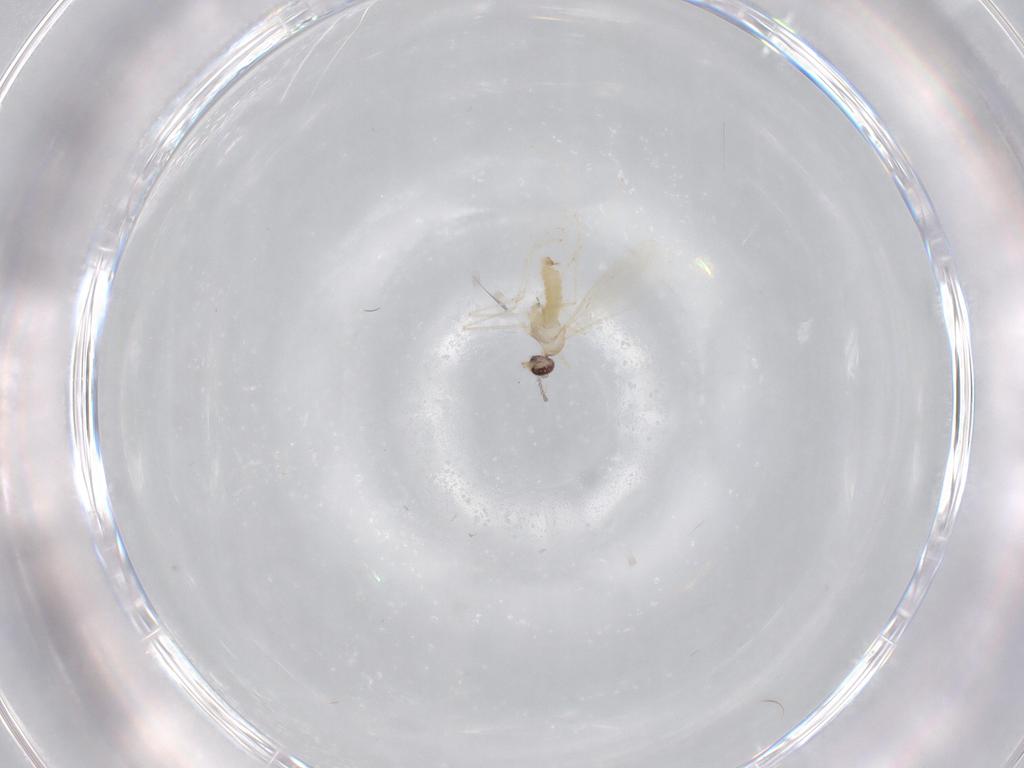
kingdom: Animalia
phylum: Arthropoda
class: Insecta
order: Diptera
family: Cecidomyiidae
